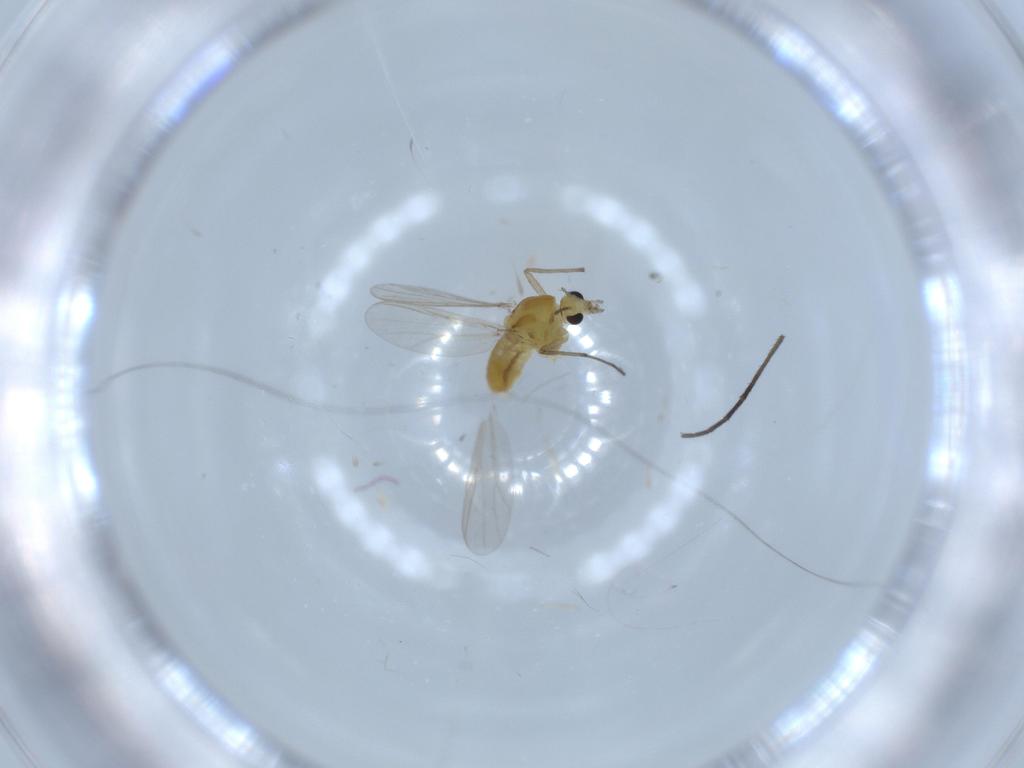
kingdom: Animalia
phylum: Arthropoda
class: Insecta
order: Diptera
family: Chironomidae
